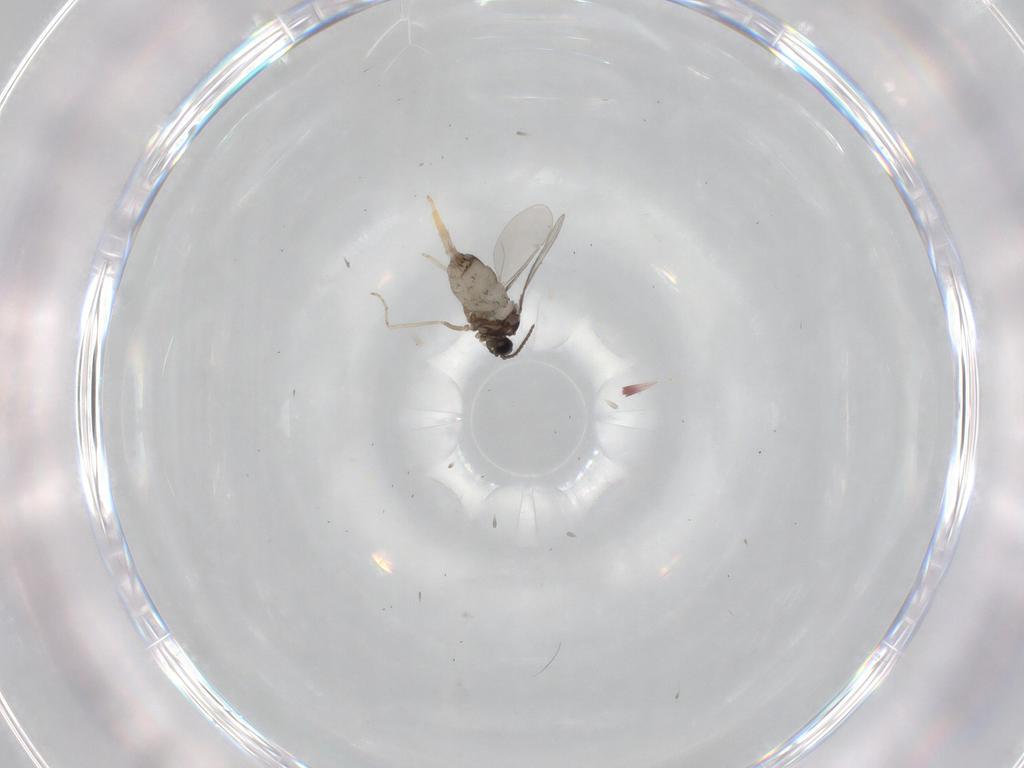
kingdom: Animalia
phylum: Arthropoda
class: Insecta
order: Diptera
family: Cecidomyiidae
